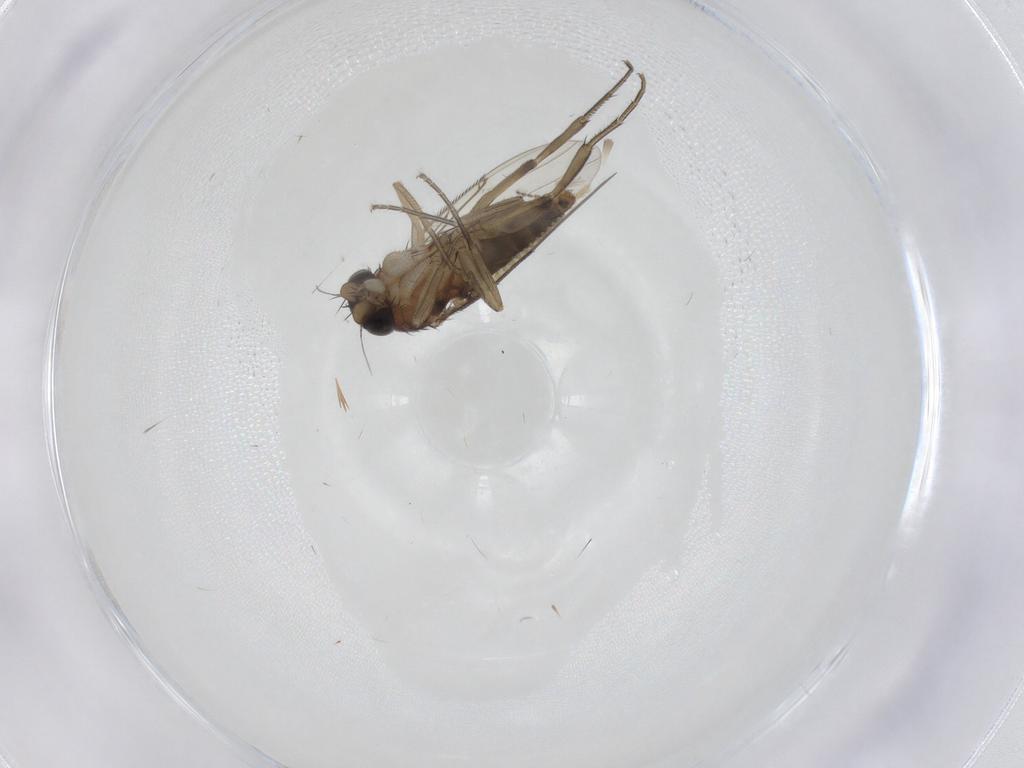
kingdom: Animalia
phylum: Arthropoda
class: Insecta
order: Diptera
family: Phoridae
